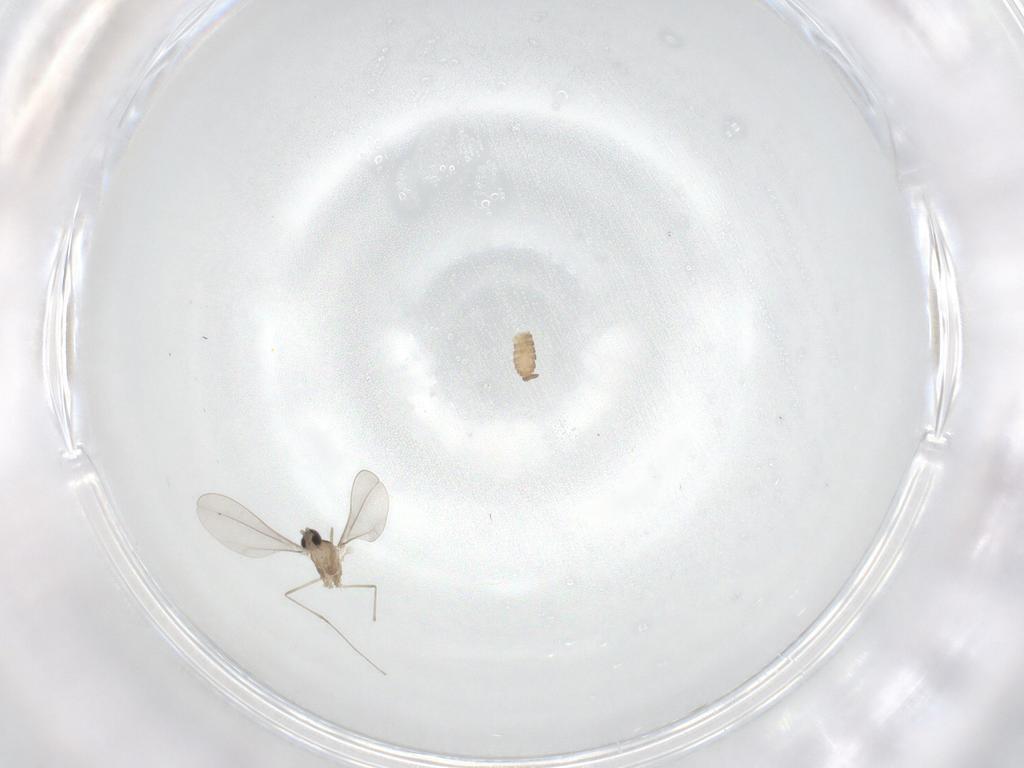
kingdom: Animalia
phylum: Arthropoda
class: Insecta
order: Diptera
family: Cecidomyiidae
